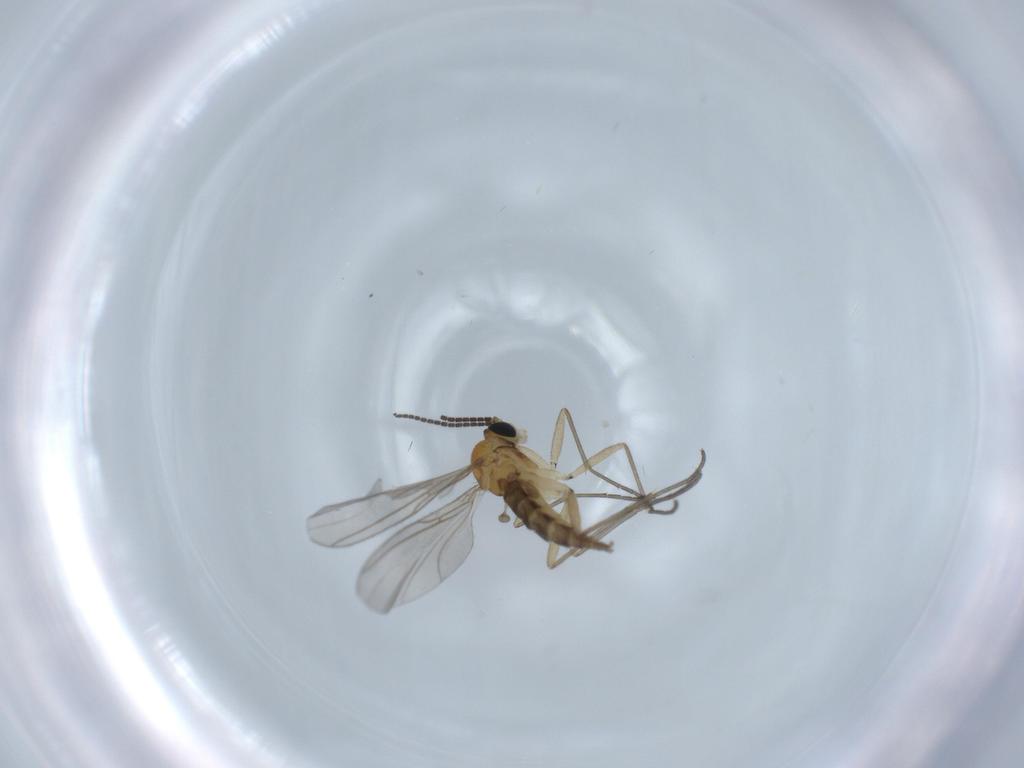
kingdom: Animalia
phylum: Arthropoda
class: Insecta
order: Diptera
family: Sciaridae
